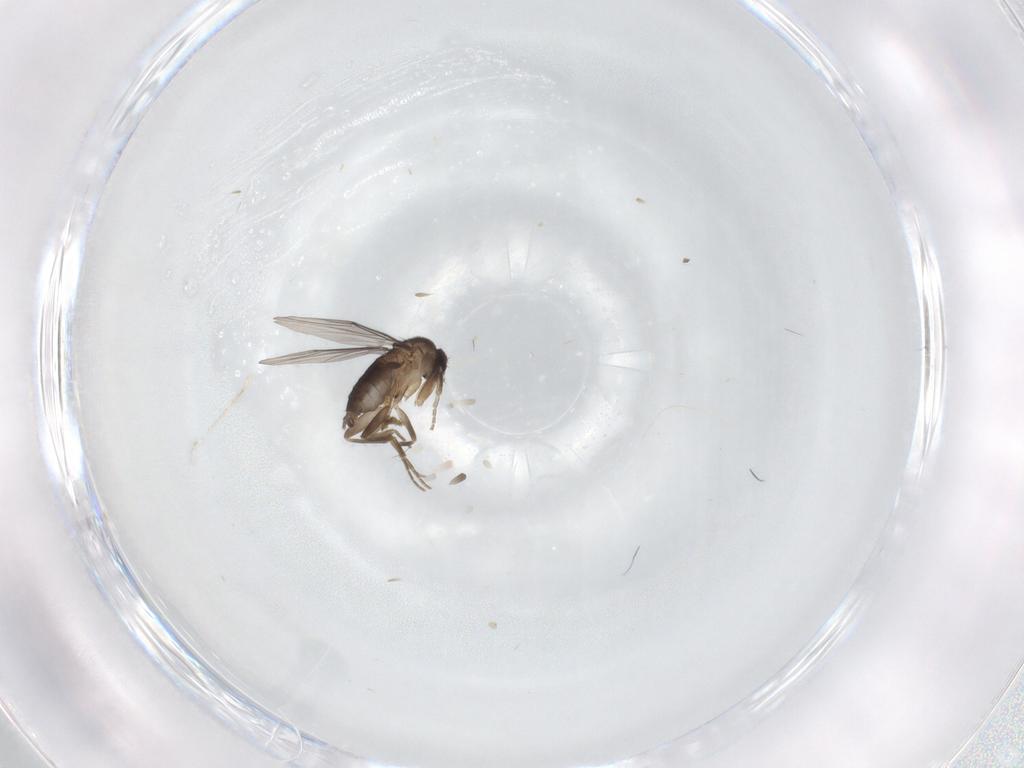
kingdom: Animalia
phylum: Arthropoda
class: Insecta
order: Diptera
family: Phoridae
